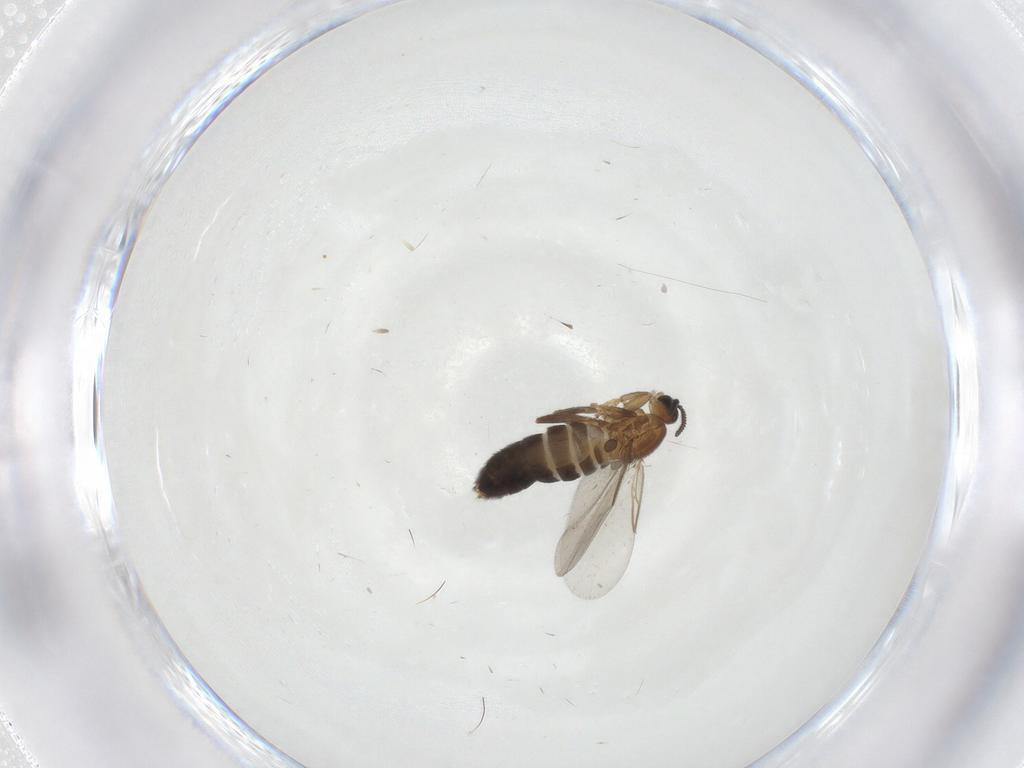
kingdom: Animalia
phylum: Arthropoda
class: Insecta
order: Diptera
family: Scatopsidae
